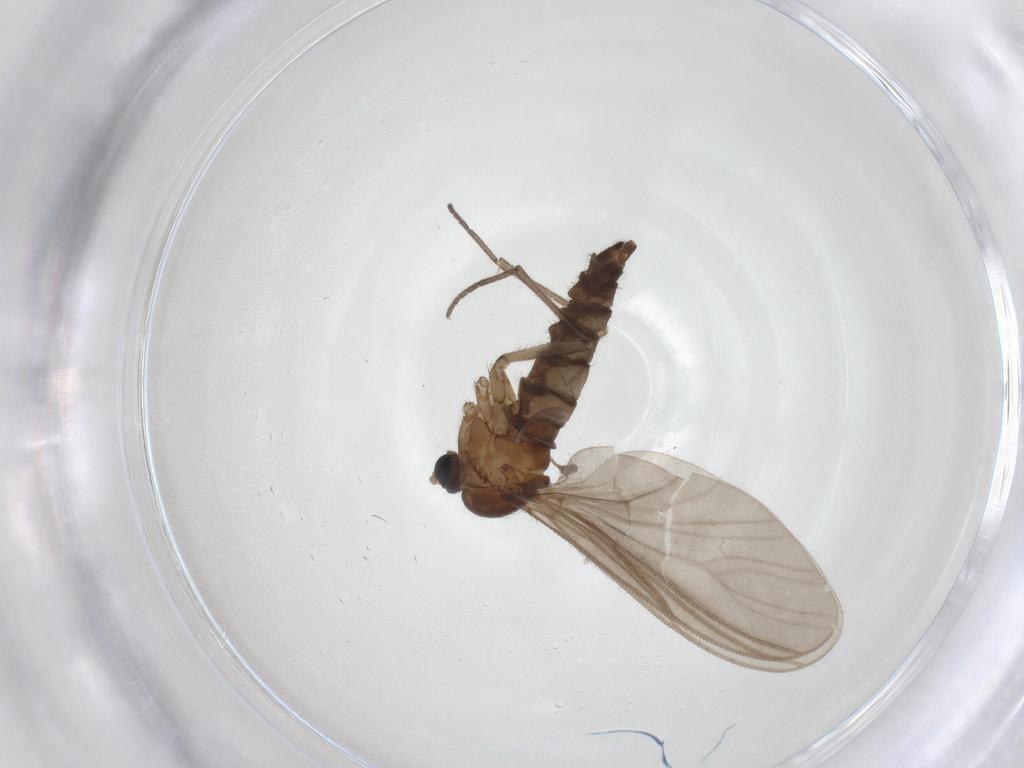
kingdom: Animalia
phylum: Arthropoda
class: Insecta
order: Diptera
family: Sciaridae
